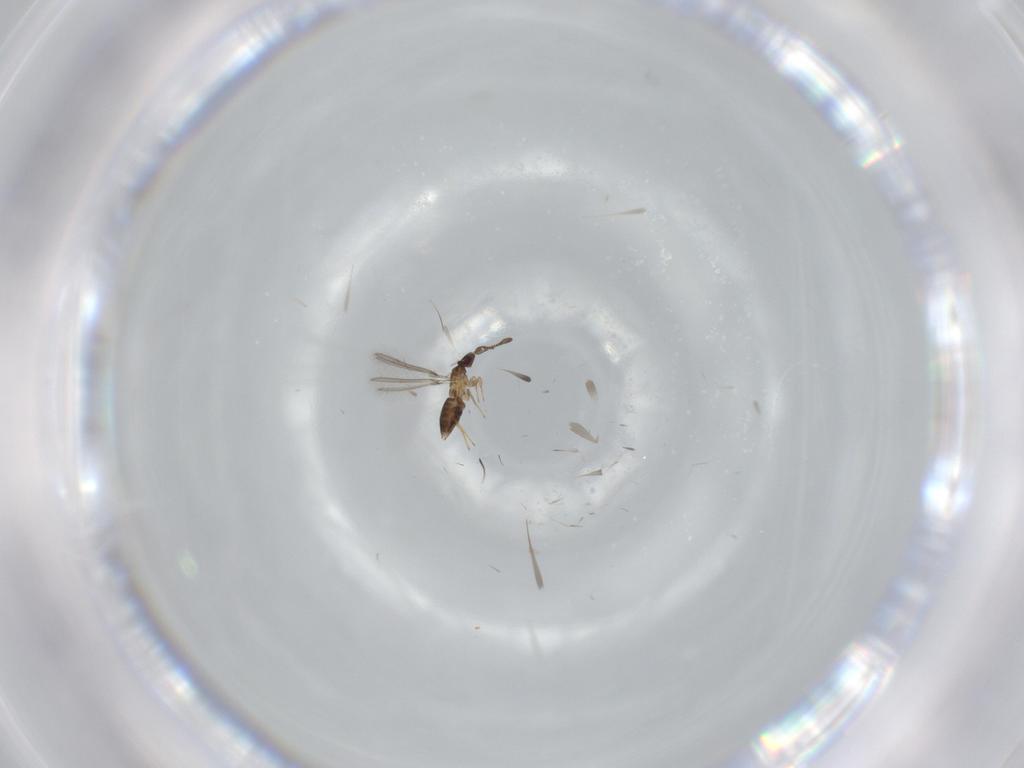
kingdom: Animalia
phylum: Arthropoda
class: Insecta
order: Hymenoptera
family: Mymaridae
